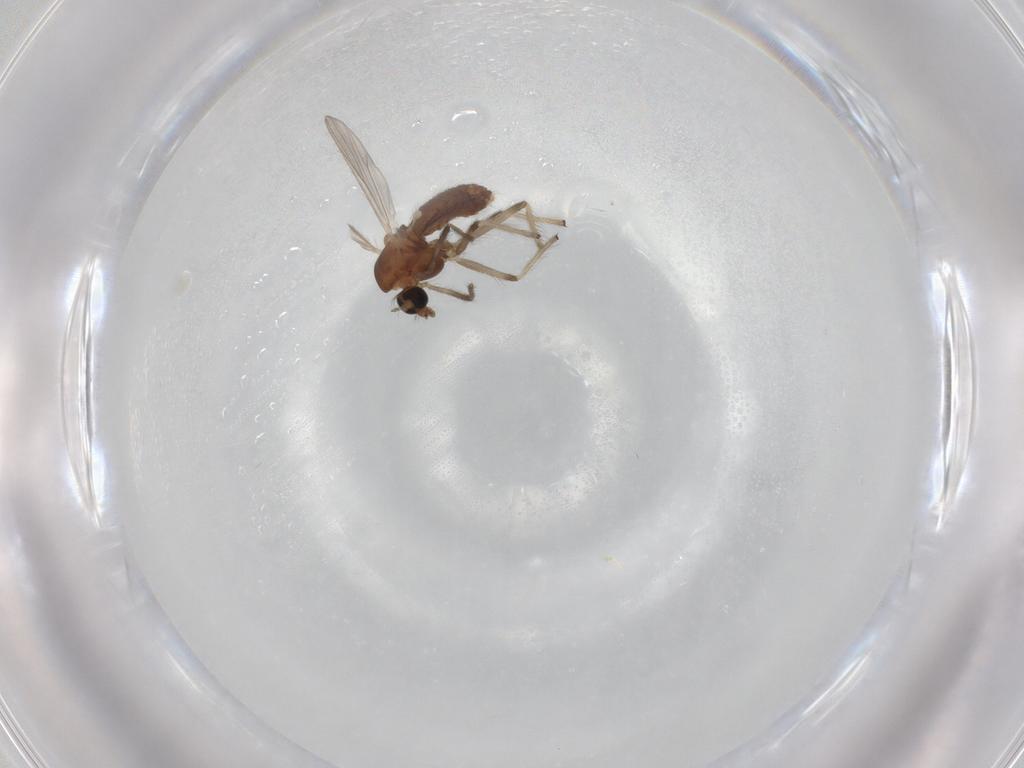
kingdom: Animalia
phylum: Arthropoda
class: Insecta
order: Diptera
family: Chironomidae
